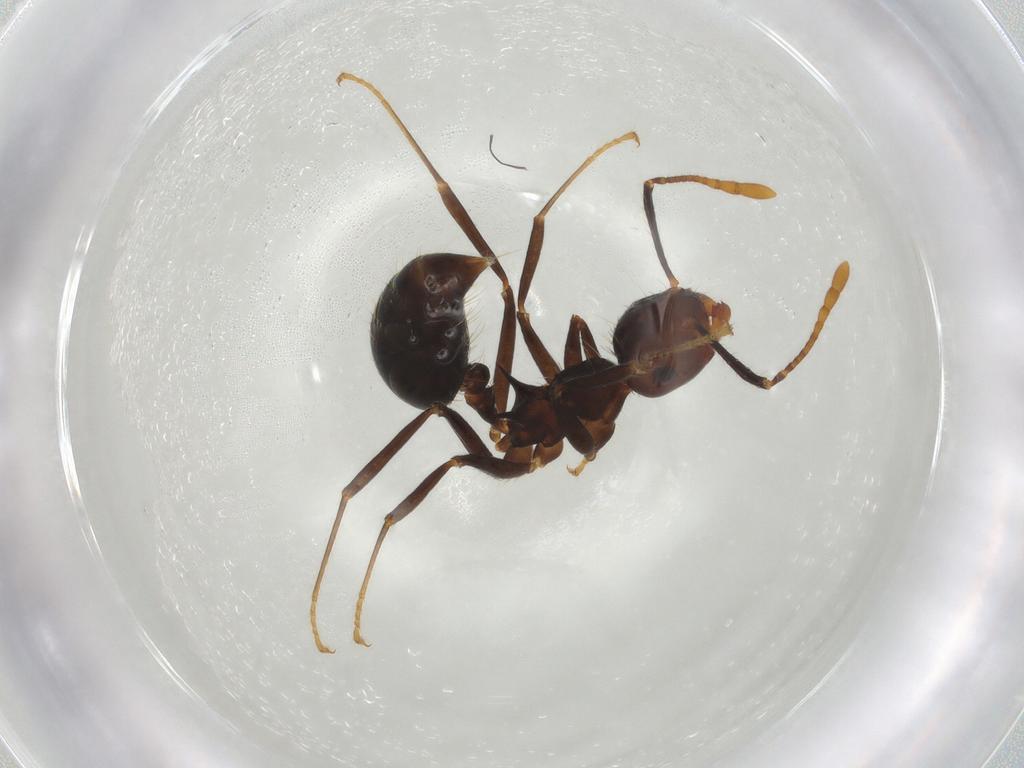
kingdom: Animalia
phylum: Arthropoda
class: Insecta
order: Hymenoptera
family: Formicidae
